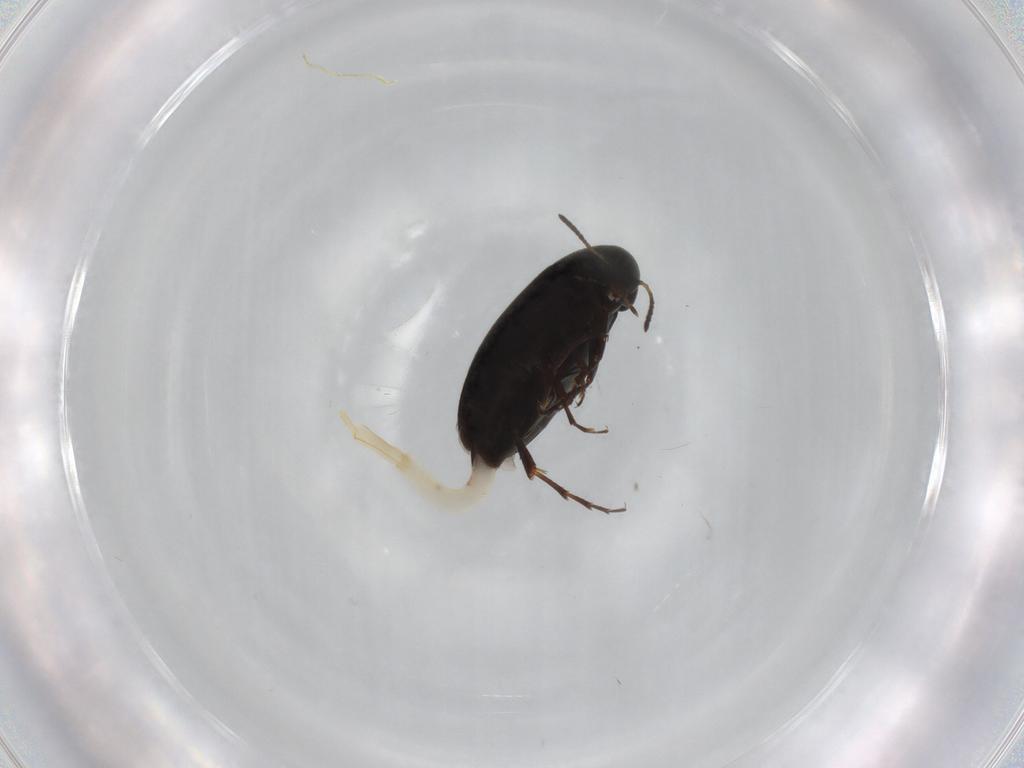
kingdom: Animalia
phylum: Arthropoda
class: Insecta
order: Coleoptera
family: Scraptiidae
